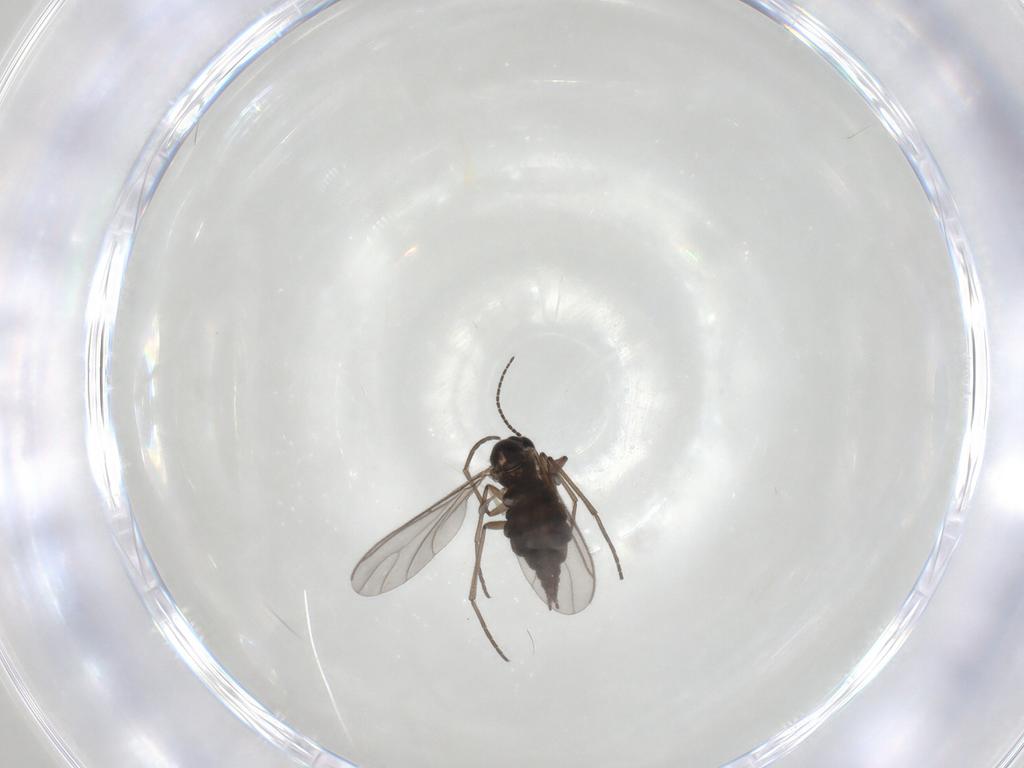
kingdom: Animalia
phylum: Arthropoda
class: Insecta
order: Diptera
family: Sciaridae
